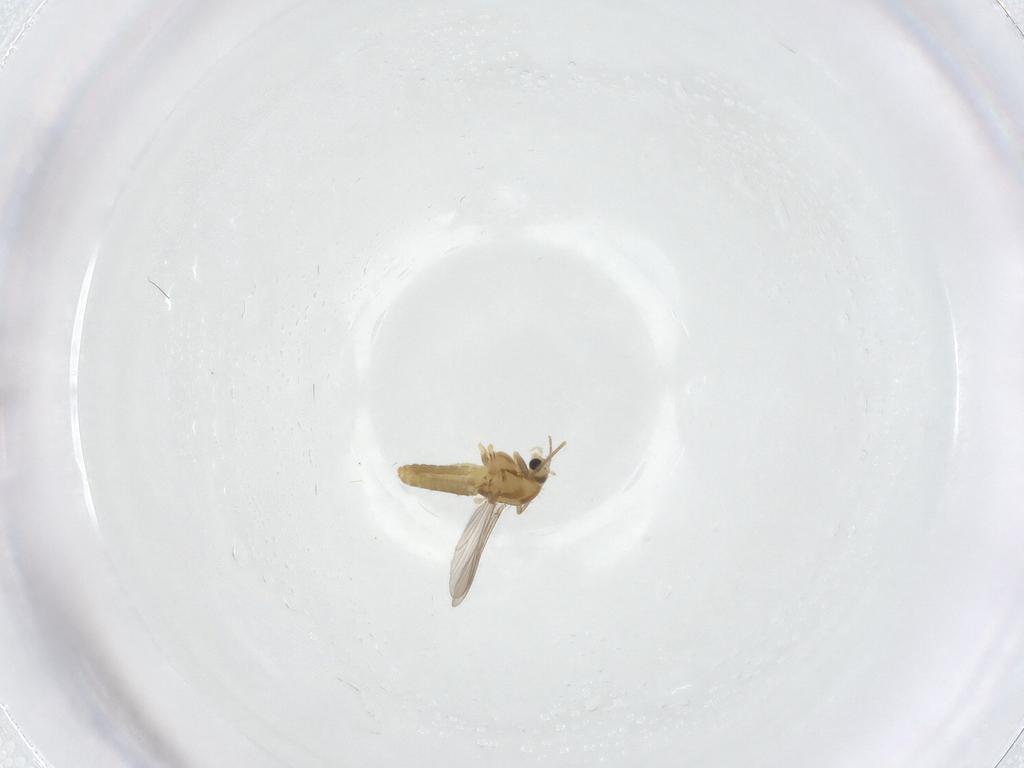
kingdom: Animalia
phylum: Arthropoda
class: Insecta
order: Diptera
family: Chironomidae
